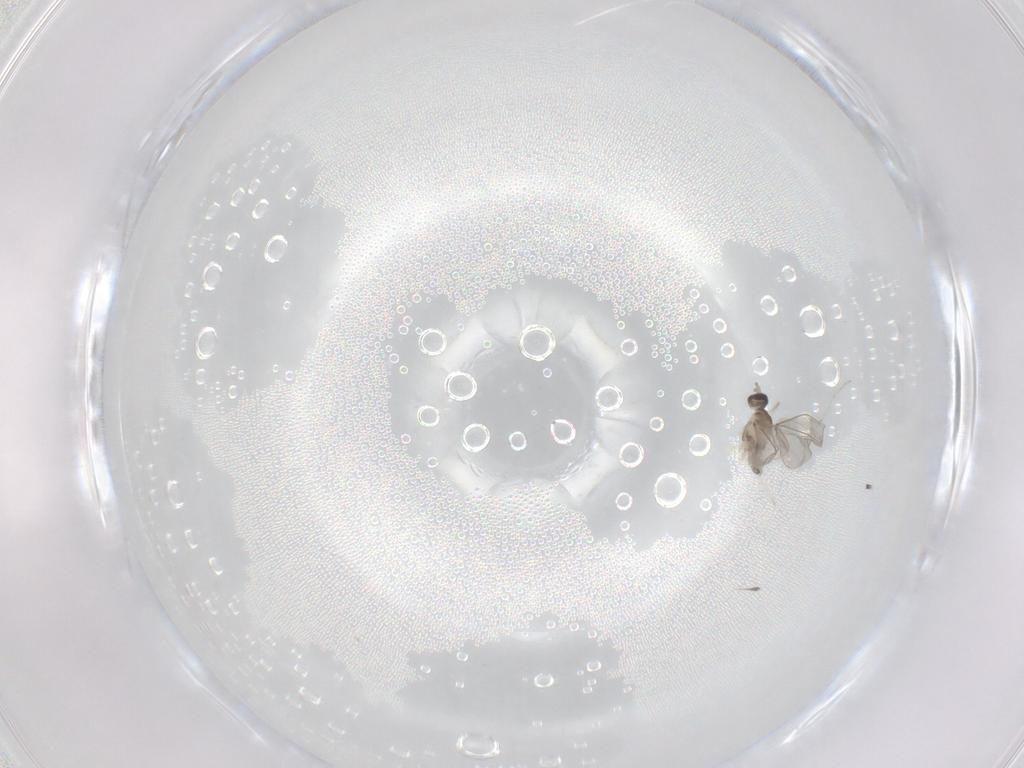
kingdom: Animalia
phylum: Arthropoda
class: Insecta
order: Diptera
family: Cecidomyiidae
